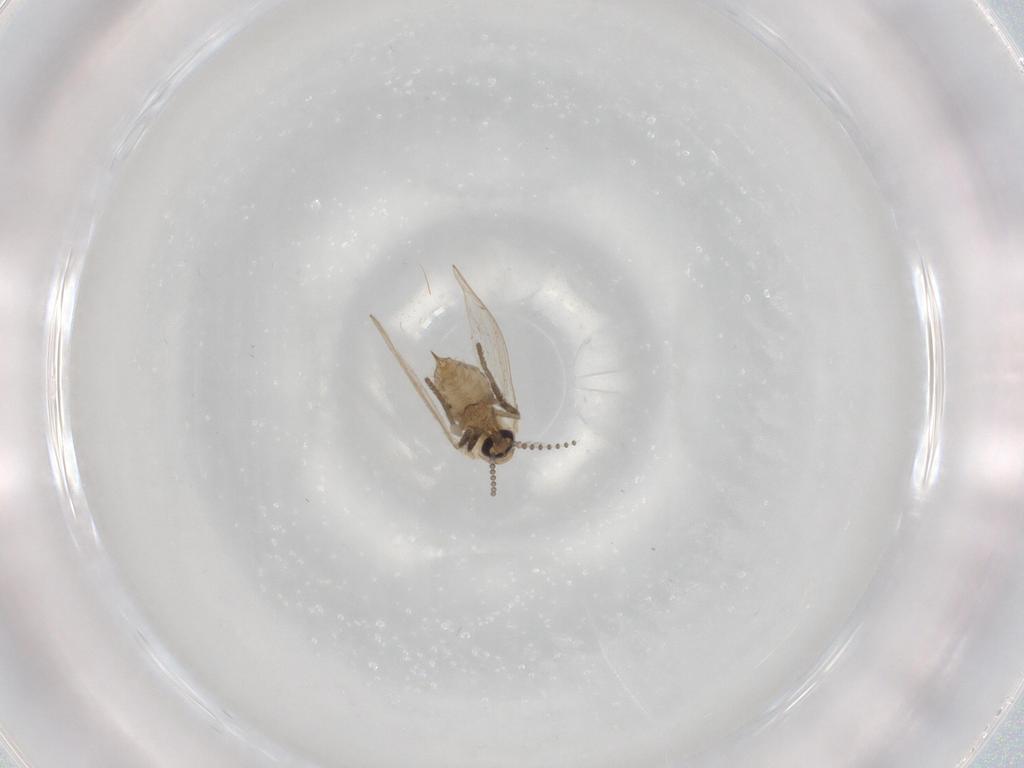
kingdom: Animalia
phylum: Arthropoda
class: Insecta
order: Diptera
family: Psychodidae
